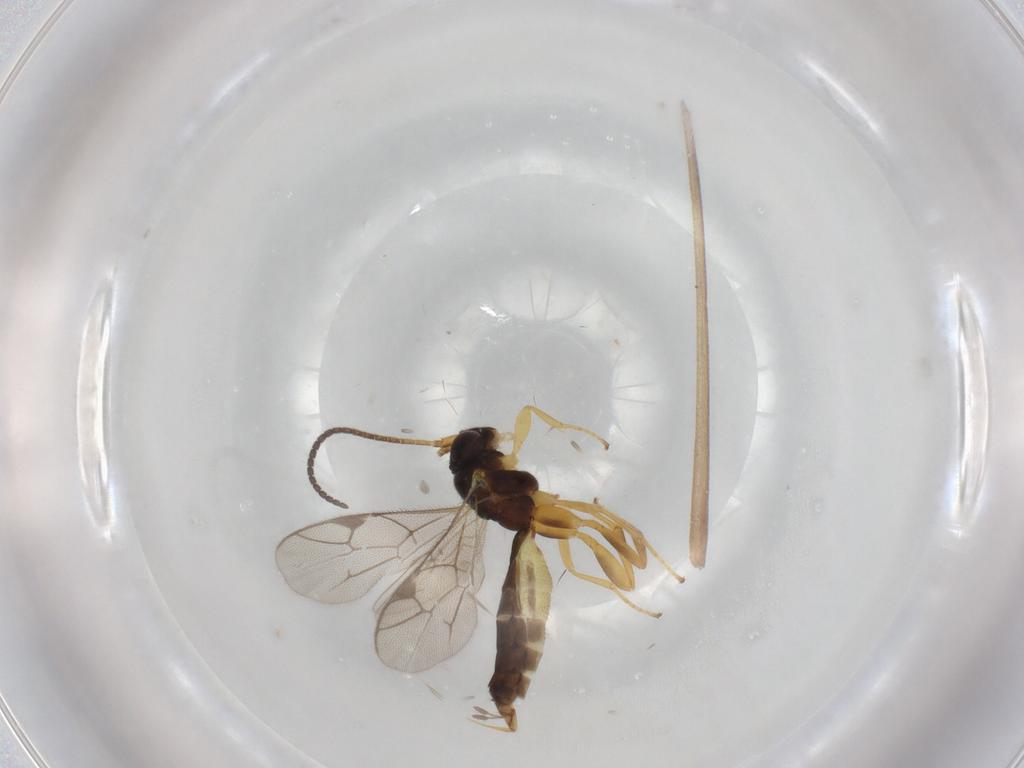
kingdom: Animalia
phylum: Arthropoda
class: Insecta
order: Hymenoptera
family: Ichneumonidae
